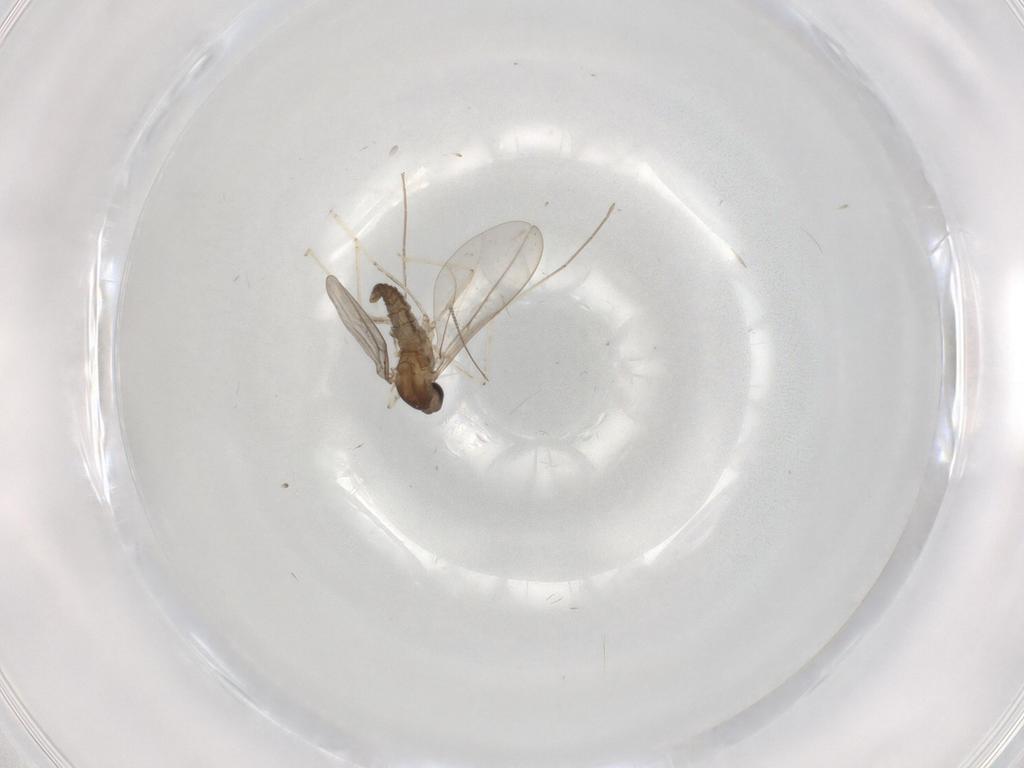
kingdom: Animalia
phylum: Arthropoda
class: Insecta
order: Diptera
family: Cecidomyiidae
